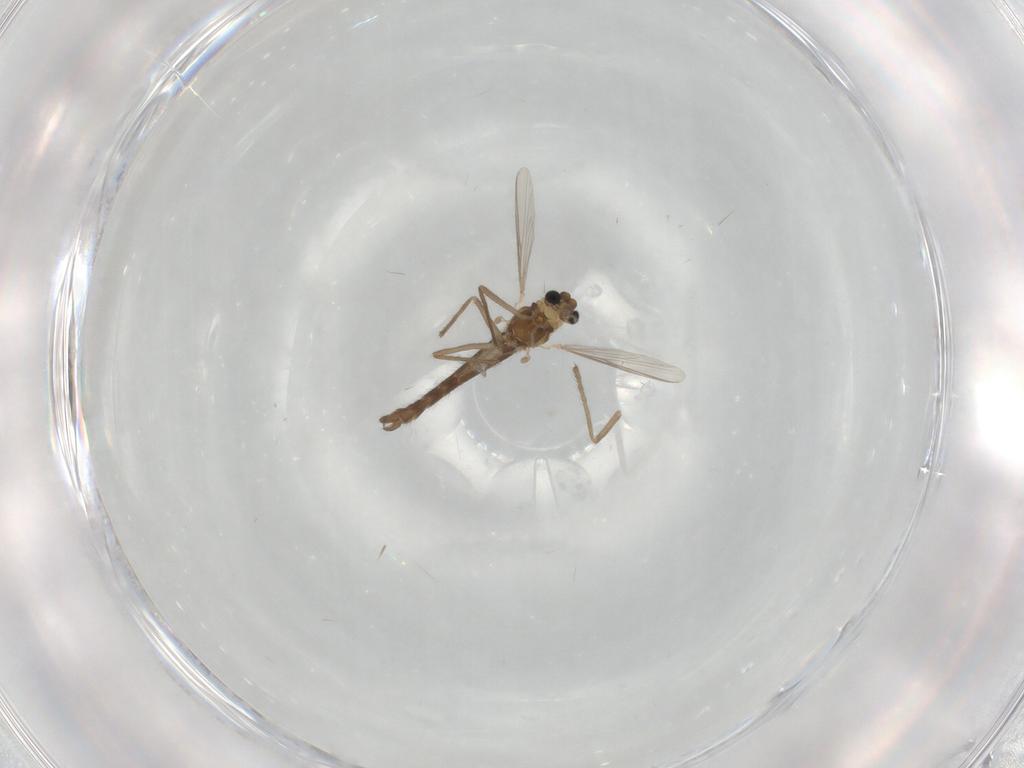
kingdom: Animalia
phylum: Arthropoda
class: Insecta
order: Diptera
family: Chironomidae
